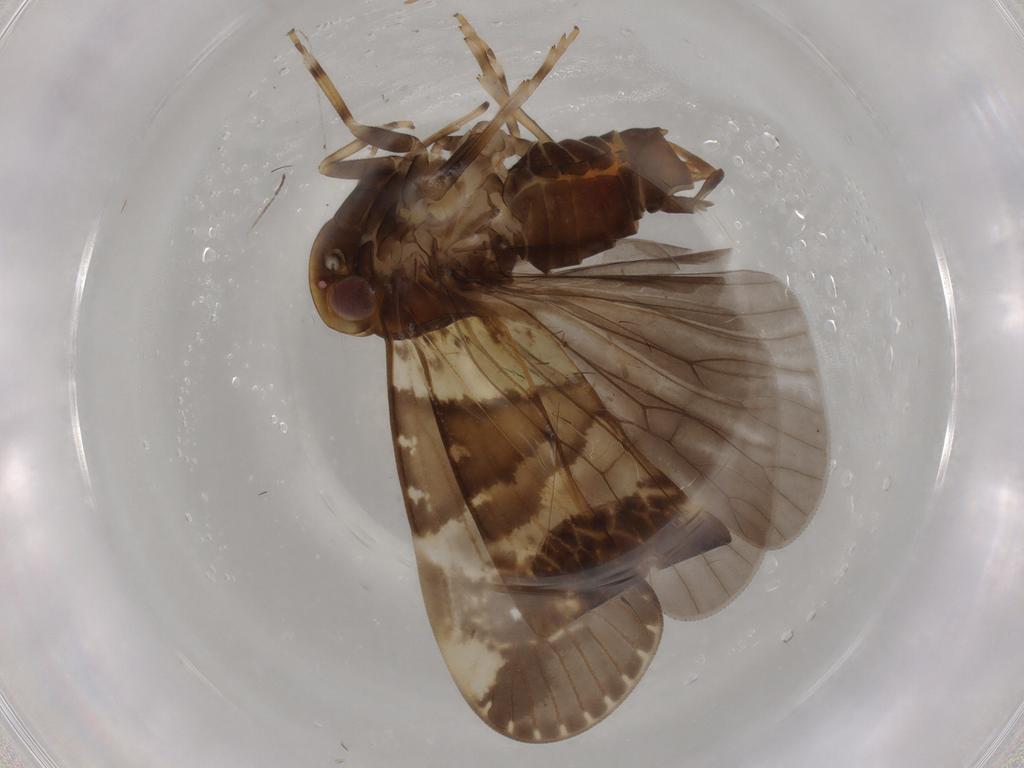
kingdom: Animalia
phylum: Arthropoda
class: Insecta
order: Hemiptera
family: Cixiidae
